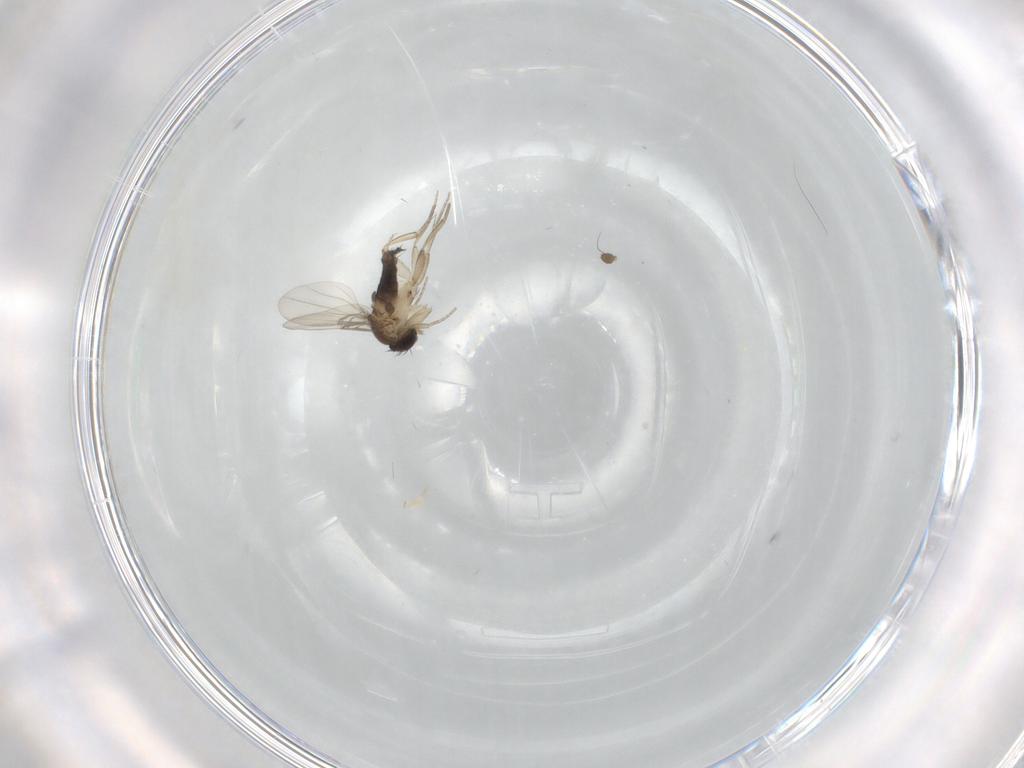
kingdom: Animalia
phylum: Arthropoda
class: Insecta
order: Diptera
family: Phoridae
